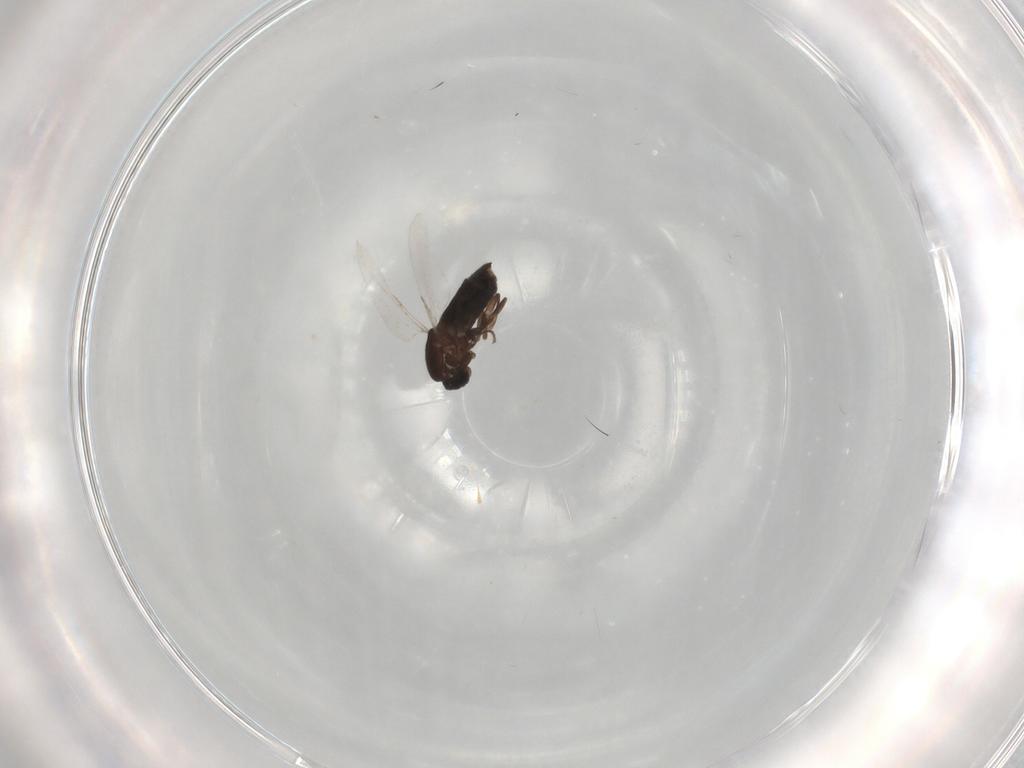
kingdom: Animalia
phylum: Arthropoda
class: Insecta
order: Diptera
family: Scatopsidae
